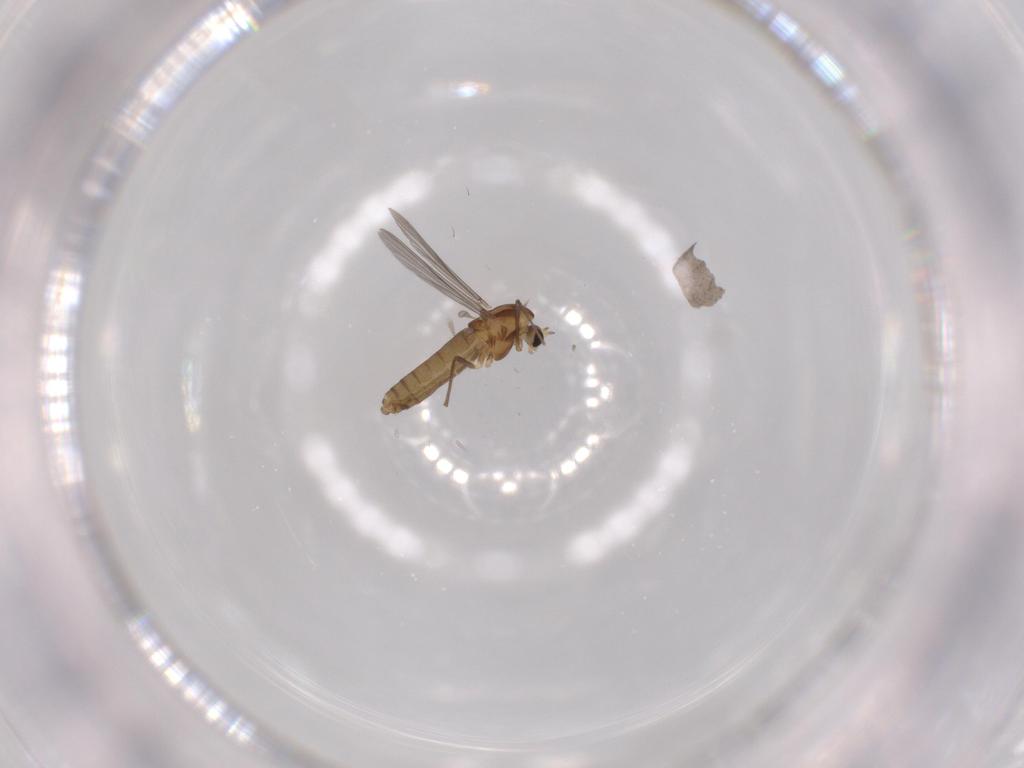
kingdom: Animalia
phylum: Arthropoda
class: Insecta
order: Diptera
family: Chironomidae
